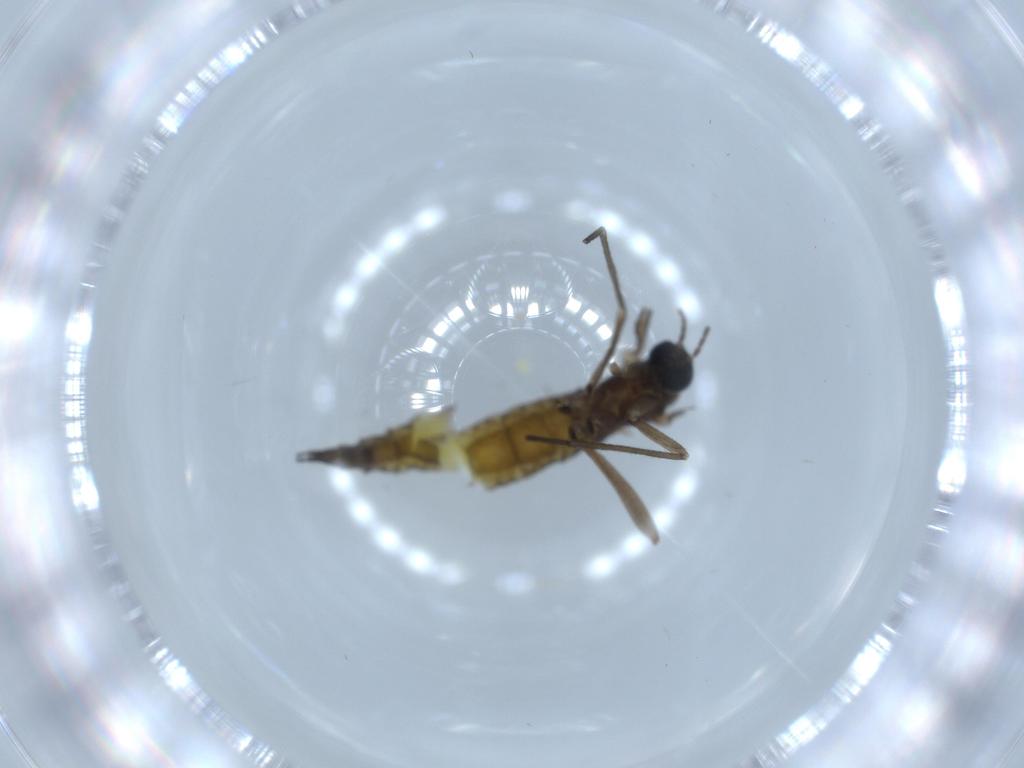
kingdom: Animalia
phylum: Arthropoda
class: Insecta
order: Diptera
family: Sciaridae
